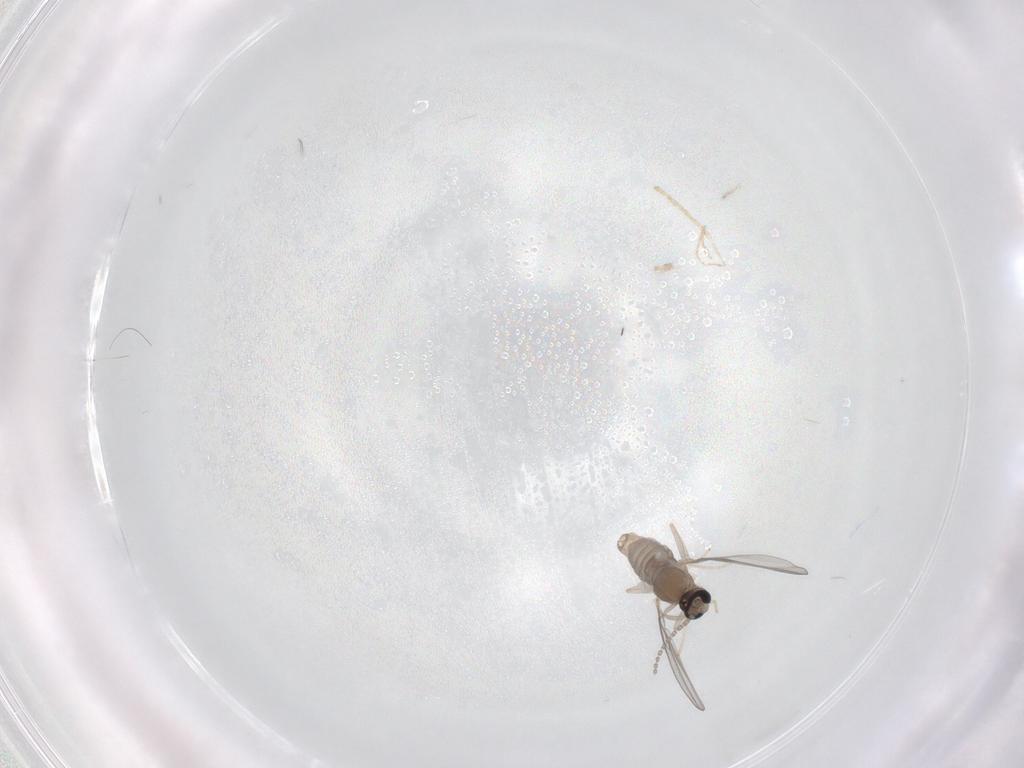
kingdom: Animalia
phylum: Arthropoda
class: Insecta
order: Diptera
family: Cecidomyiidae
